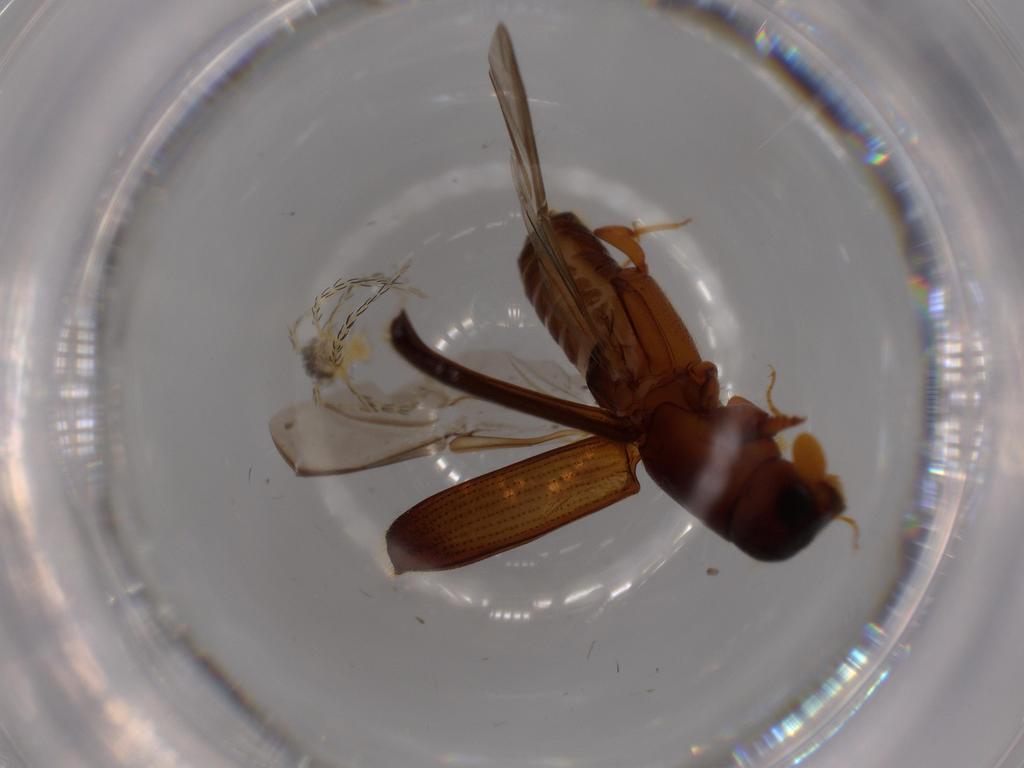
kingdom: Animalia
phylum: Arthropoda
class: Insecta
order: Coleoptera
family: Curculionidae
